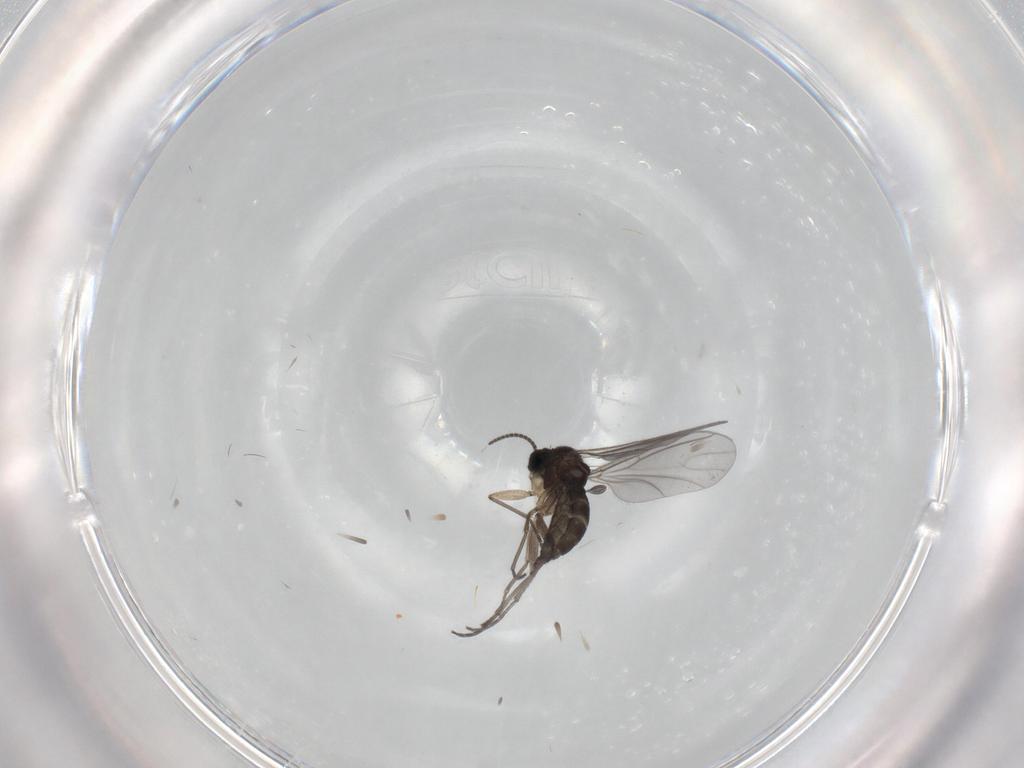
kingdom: Animalia
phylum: Arthropoda
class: Insecta
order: Diptera
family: Sciaridae
